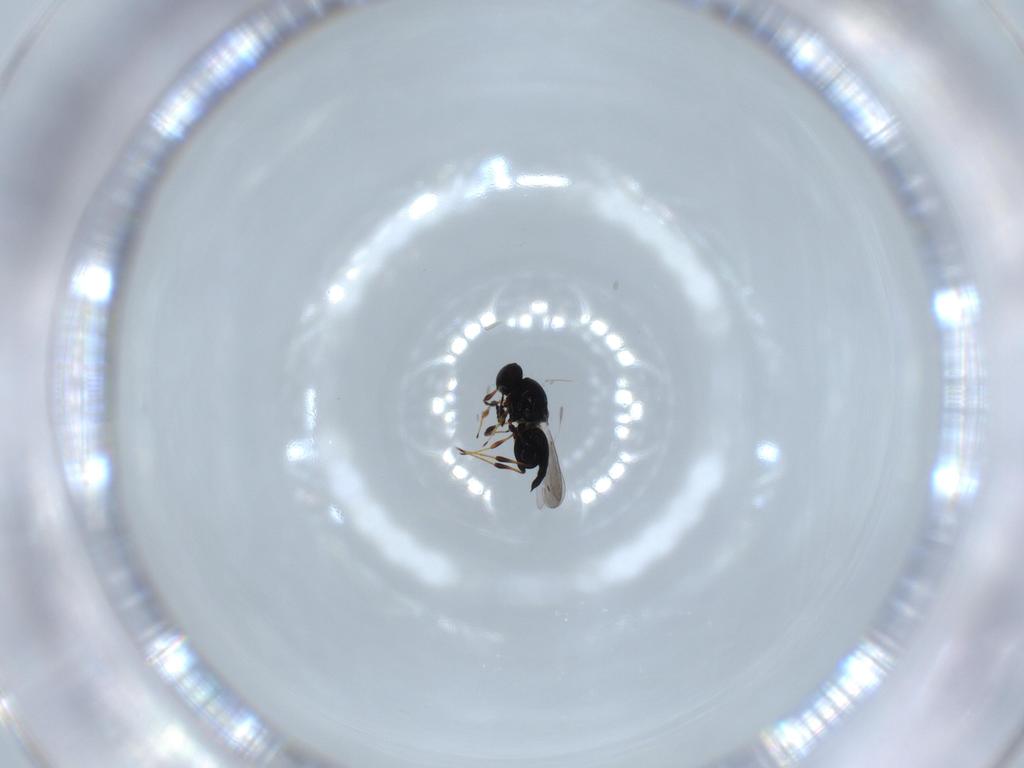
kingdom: Animalia
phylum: Arthropoda
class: Insecta
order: Hymenoptera
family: Platygastridae
